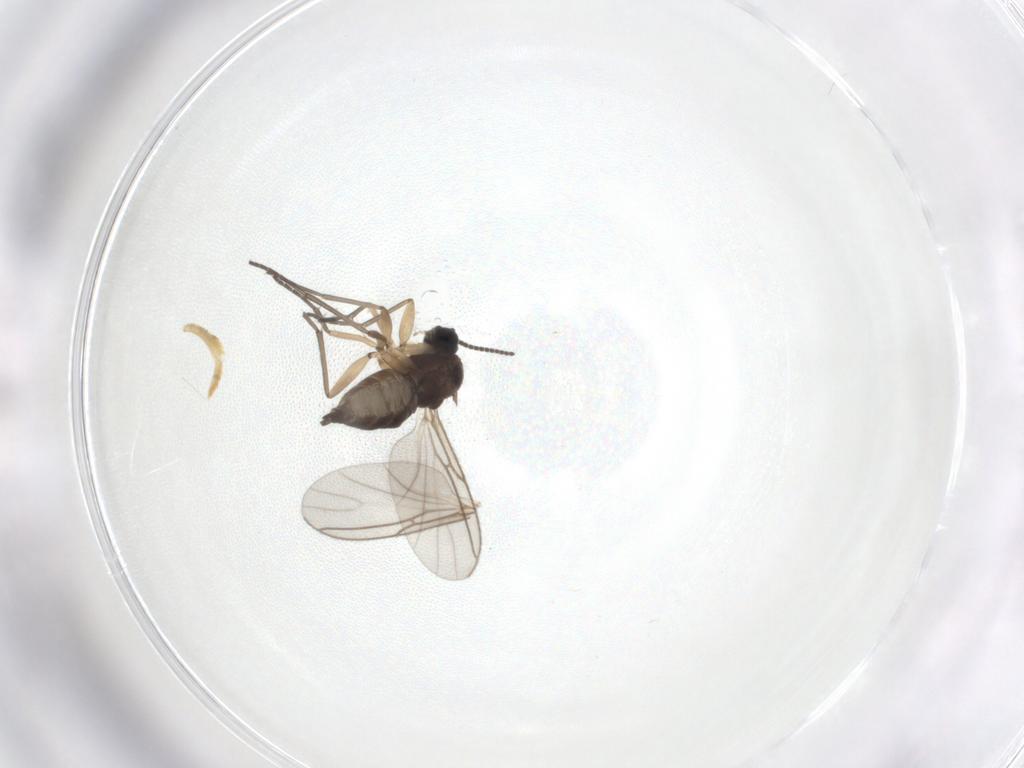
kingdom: Animalia
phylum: Arthropoda
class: Insecta
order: Diptera
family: Sciaridae
